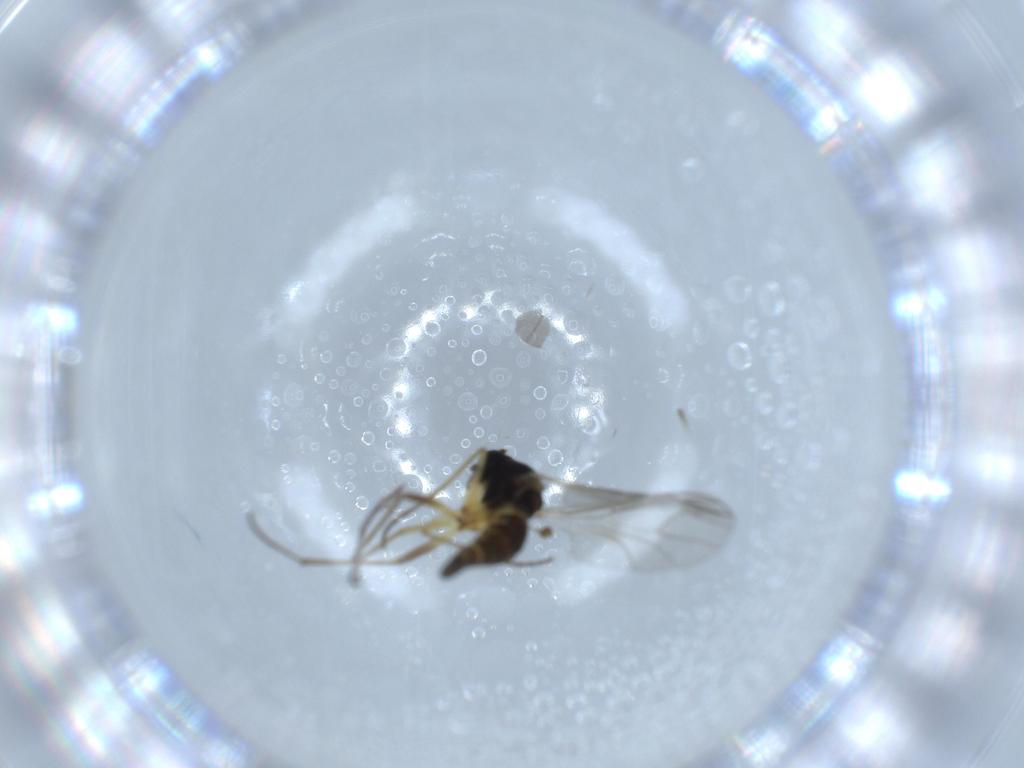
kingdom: Animalia
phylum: Arthropoda
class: Insecta
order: Diptera
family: Sciaridae
